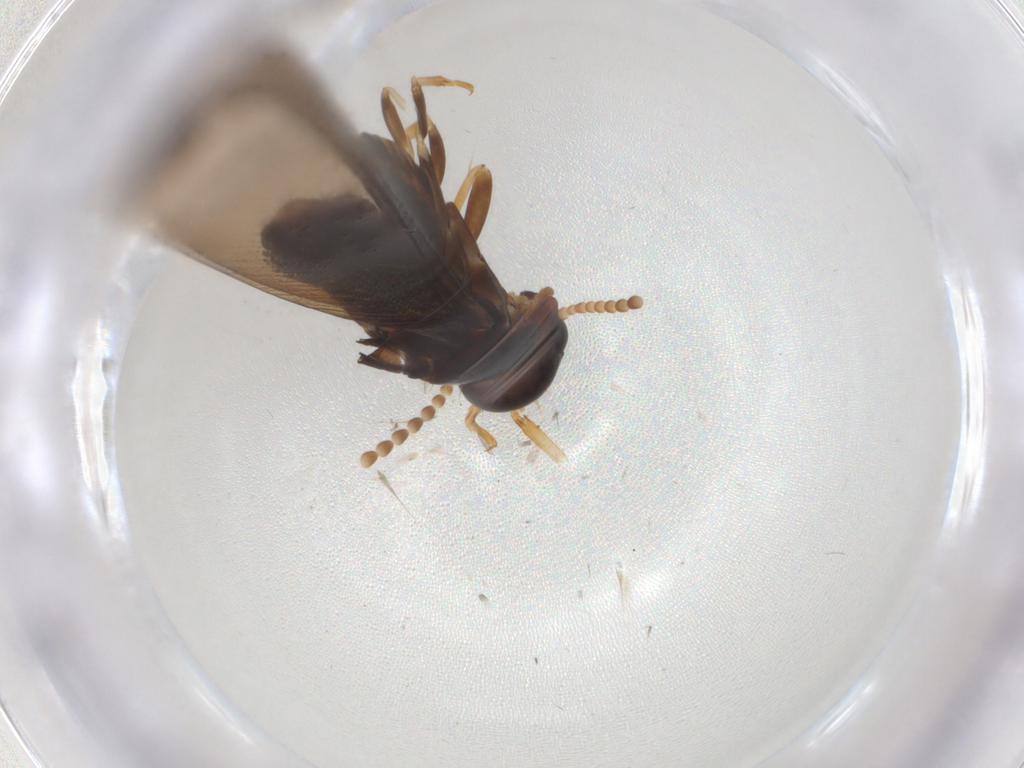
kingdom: Animalia
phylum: Arthropoda
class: Insecta
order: Blattodea
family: Kalotermitidae
